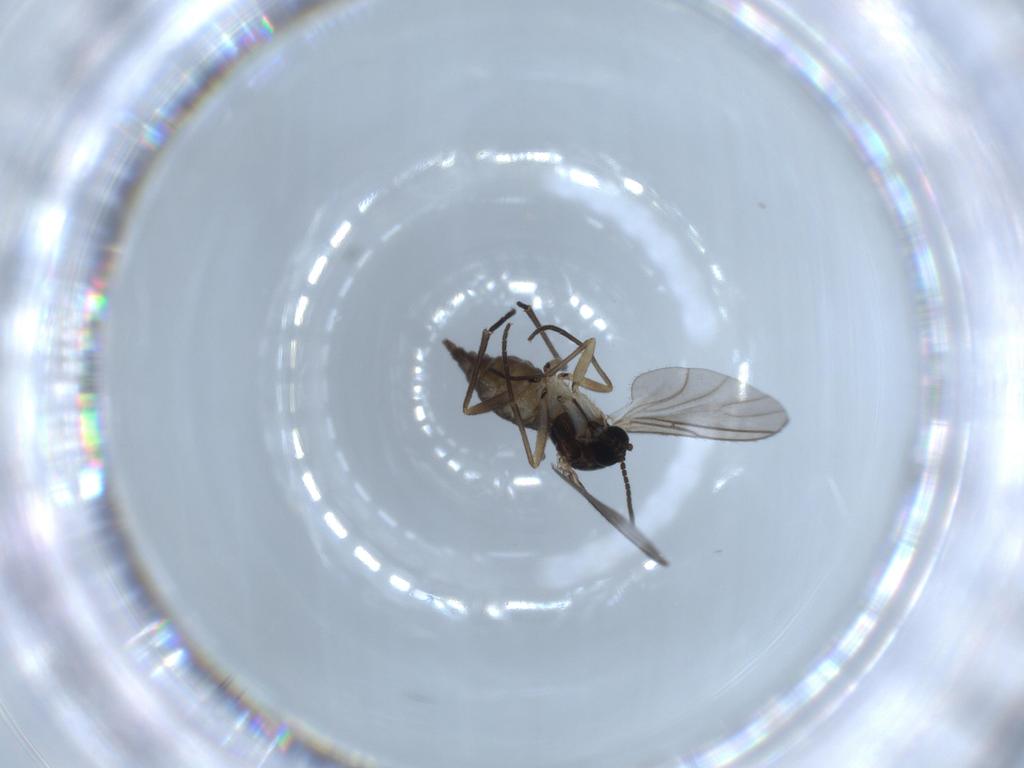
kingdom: Animalia
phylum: Arthropoda
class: Insecta
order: Diptera
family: Sciaridae
